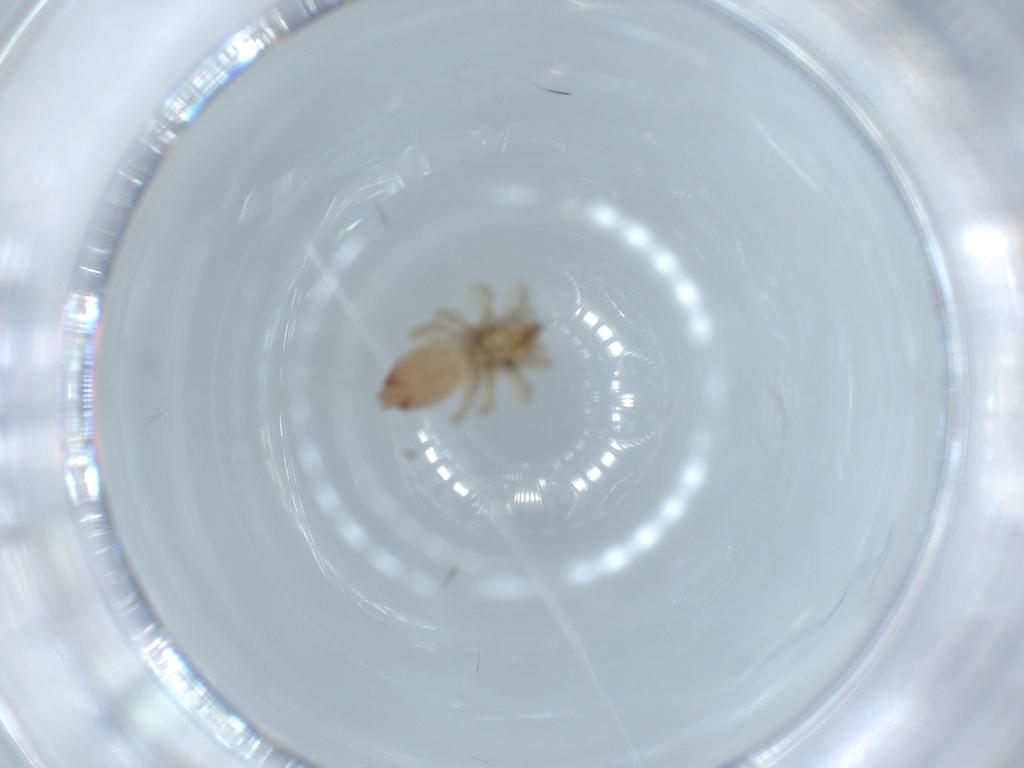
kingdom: Animalia
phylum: Arthropoda
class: Arachnida
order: Araneae
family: Clubionidae
